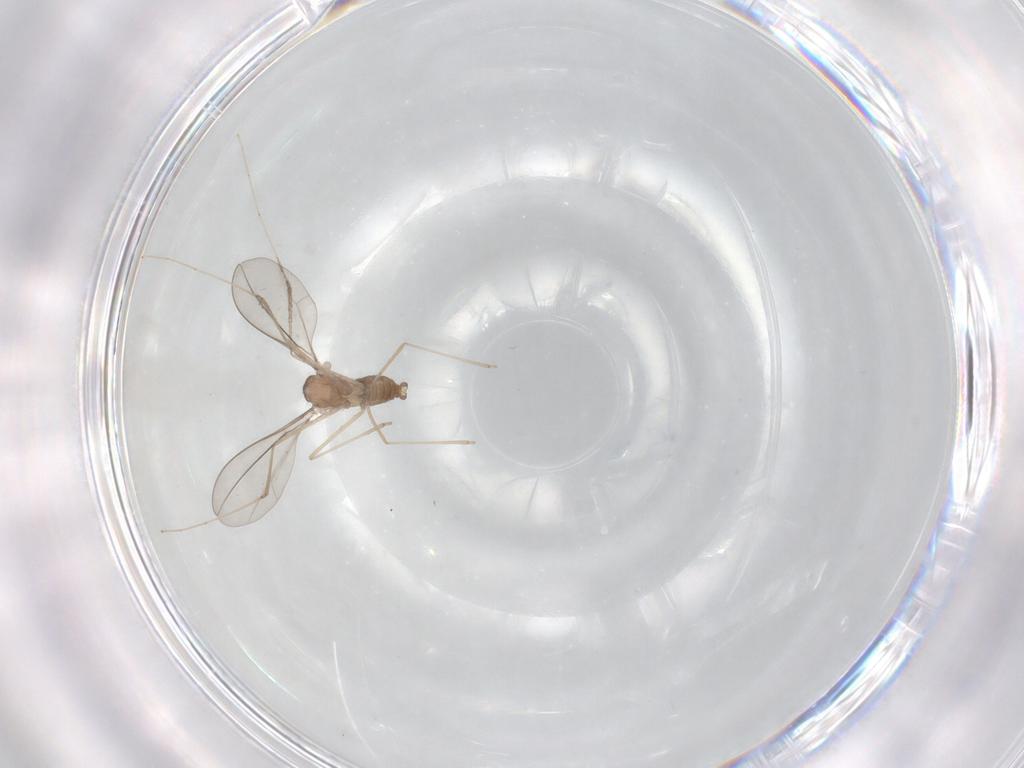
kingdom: Animalia
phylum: Arthropoda
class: Insecta
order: Diptera
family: Cecidomyiidae
